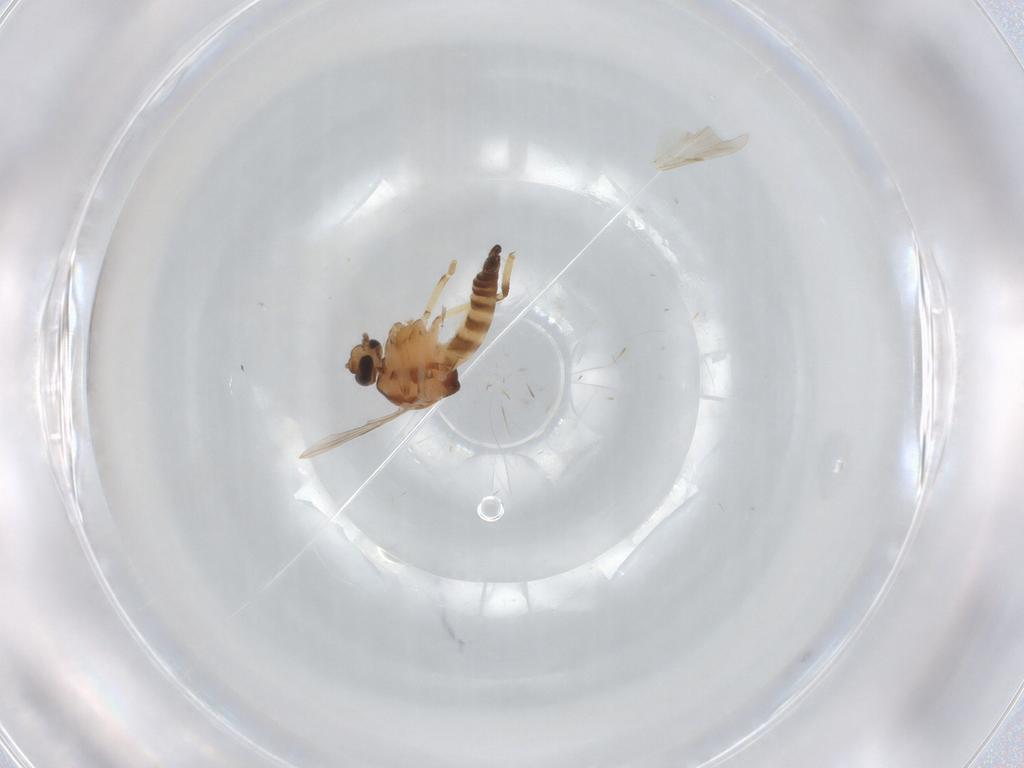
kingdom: Animalia
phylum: Arthropoda
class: Insecta
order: Diptera
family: Ceratopogonidae
